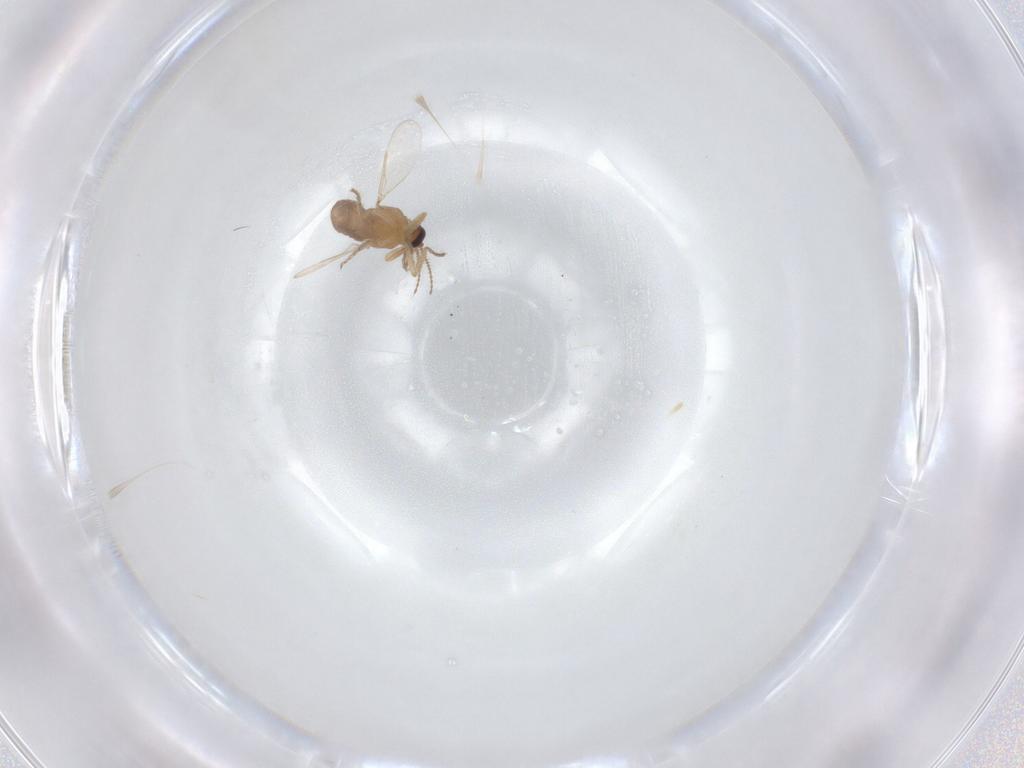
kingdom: Animalia
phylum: Arthropoda
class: Insecta
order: Diptera
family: Ceratopogonidae
